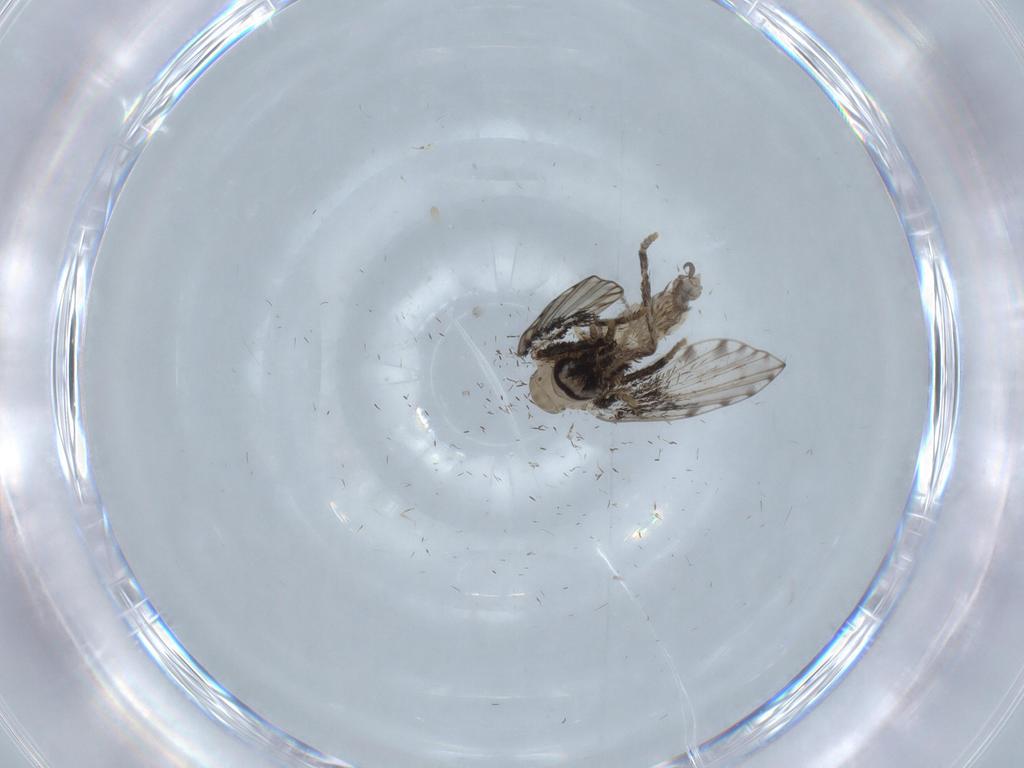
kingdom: Animalia
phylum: Arthropoda
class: Insecta
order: Diptera
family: Psychodidae
